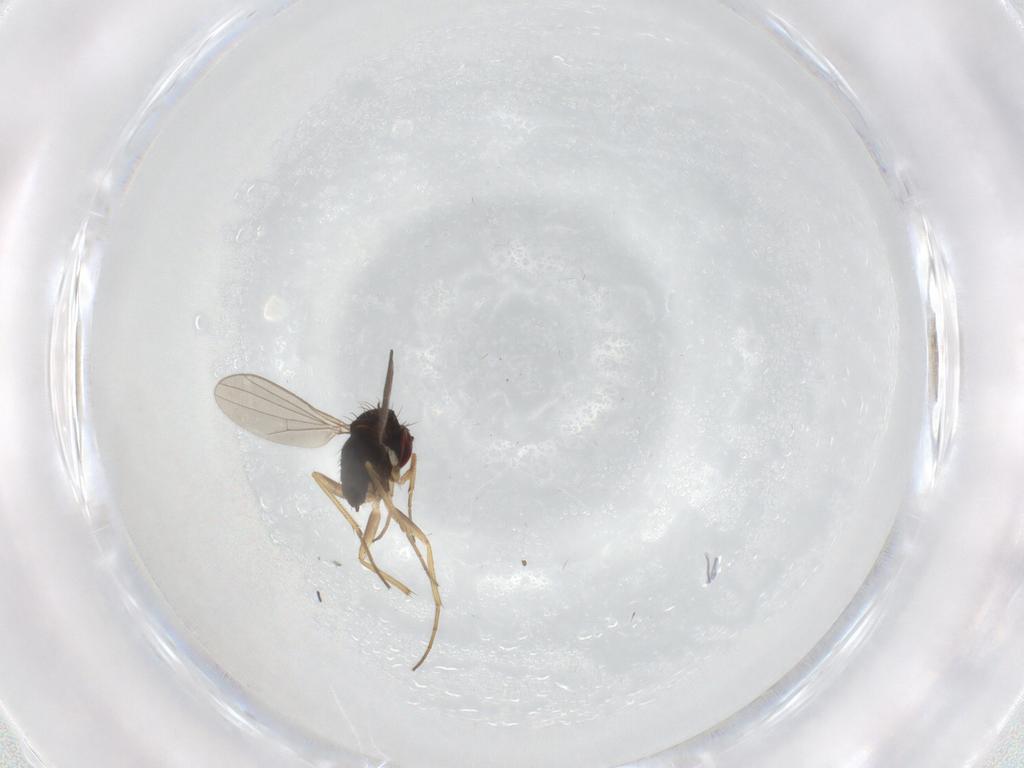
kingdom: Animalia
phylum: Arthropoda
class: Insecta
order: Diptera
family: Dolichopodidae
